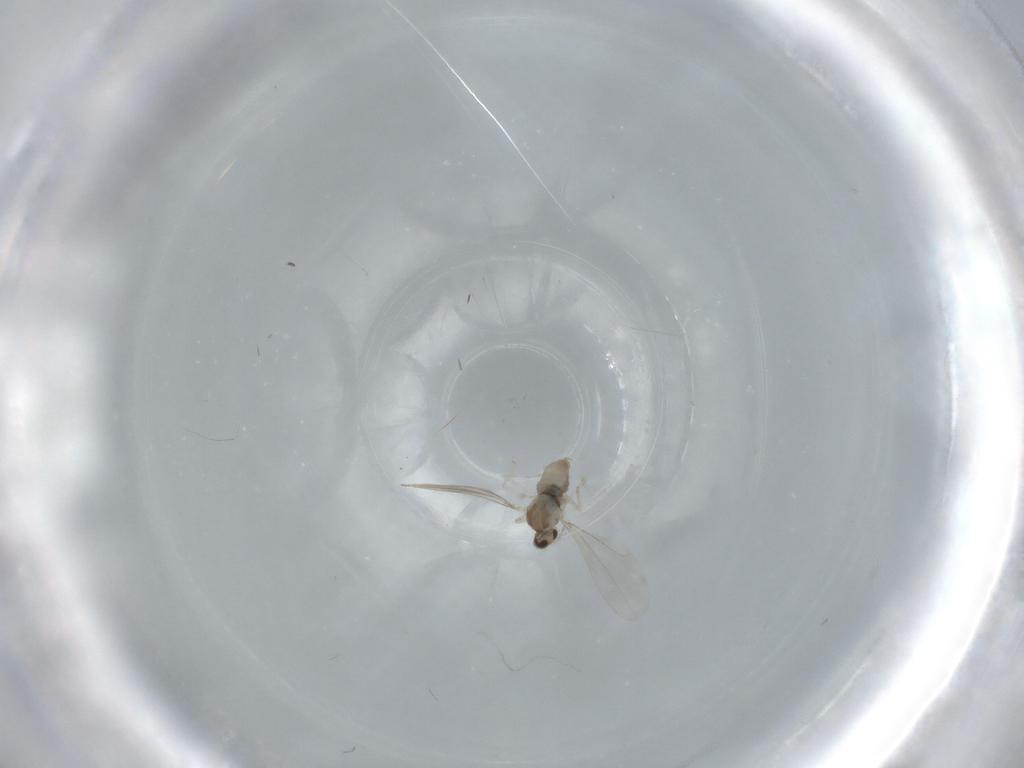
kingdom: Animalia
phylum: Arthropoda
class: Insecta
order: Diptera
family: Cecidomyiidae
